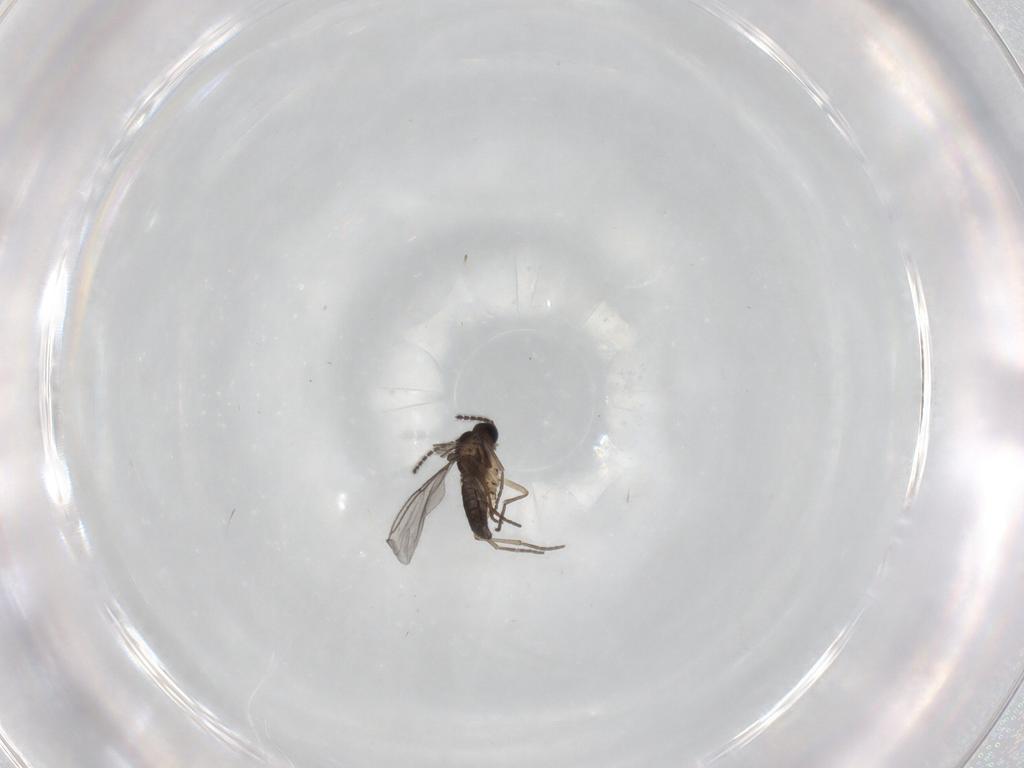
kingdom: Animalia
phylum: Arthropoda
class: Insecta
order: Diptera
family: Sciaridae
